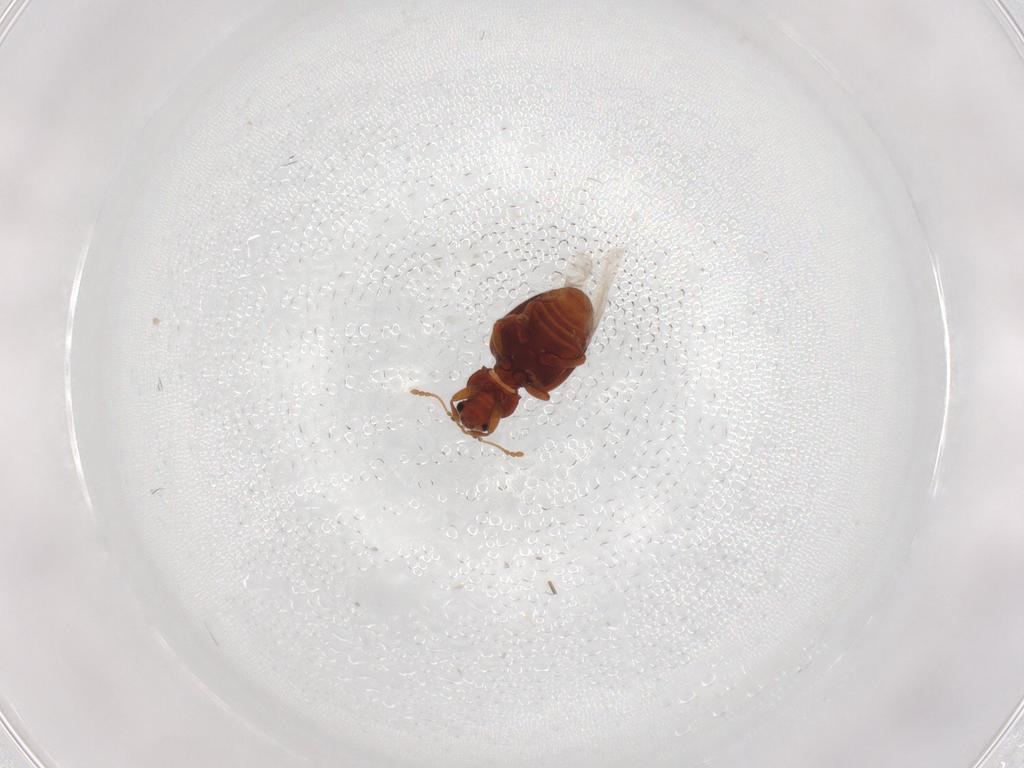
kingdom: Animalia
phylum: Arthropoda
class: Insecta
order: Coleoptera
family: Latridiidae
